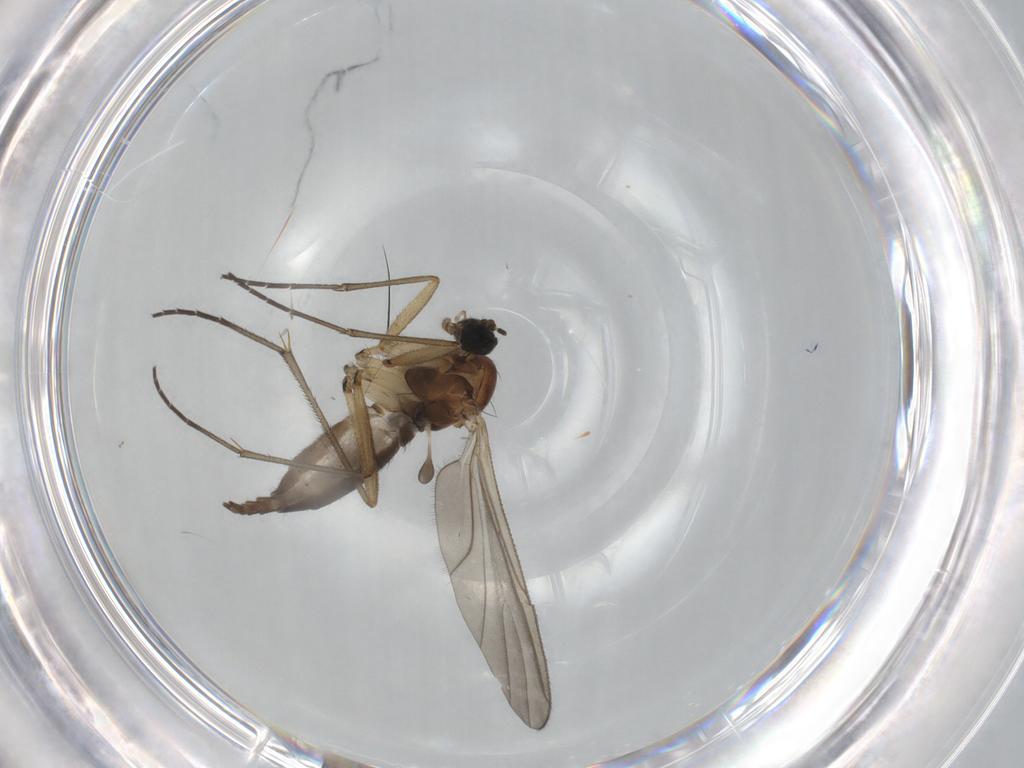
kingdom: Animalia
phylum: Arthropoda
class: Insecta
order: Diptera
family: Sciaridae
